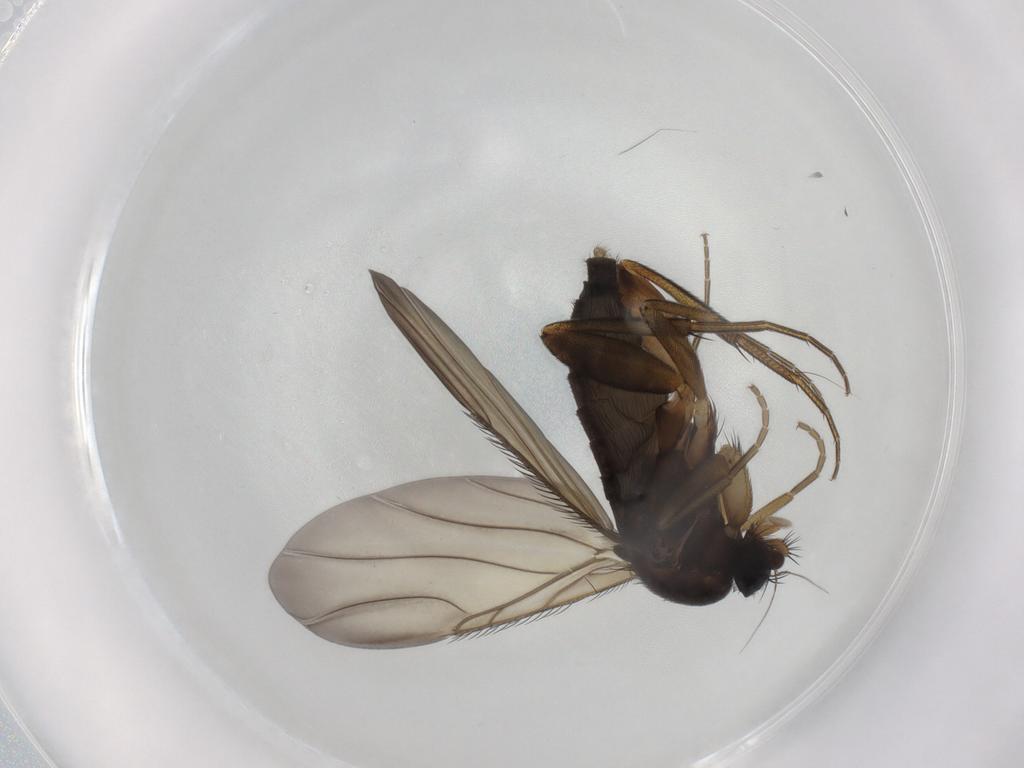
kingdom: Animalia
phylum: Arthropoda
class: Insecta
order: Diptera
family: Phoridae
